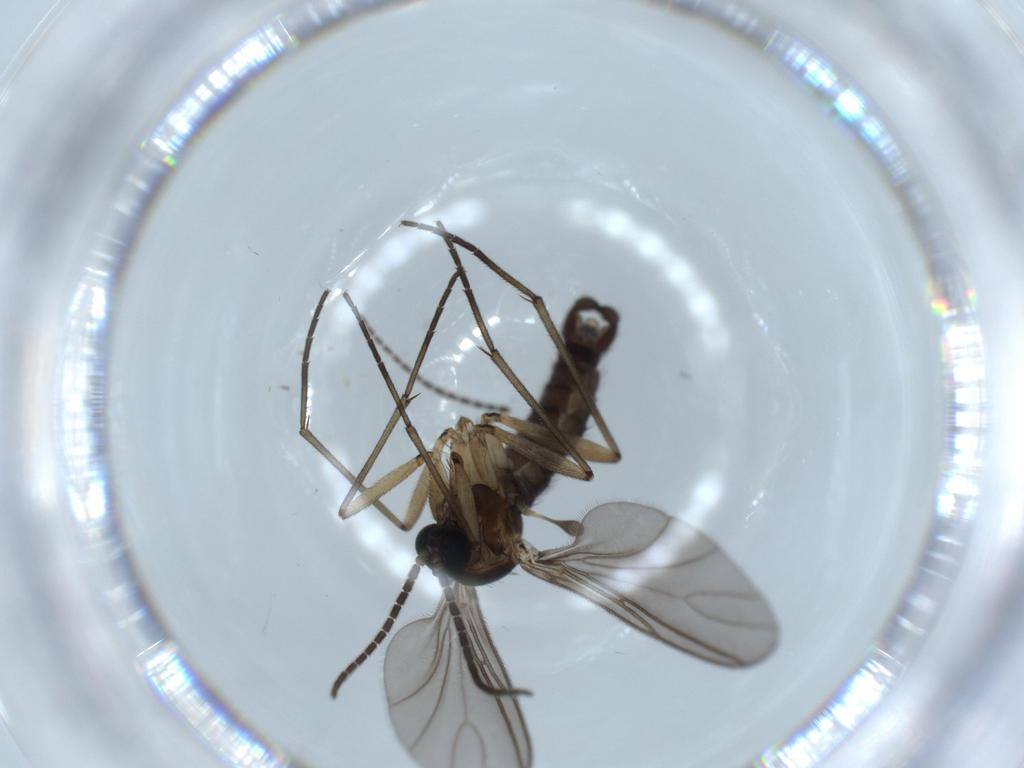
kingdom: Animalia
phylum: Arthropoda
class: Insecta
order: Diptera
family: Sciaridae
